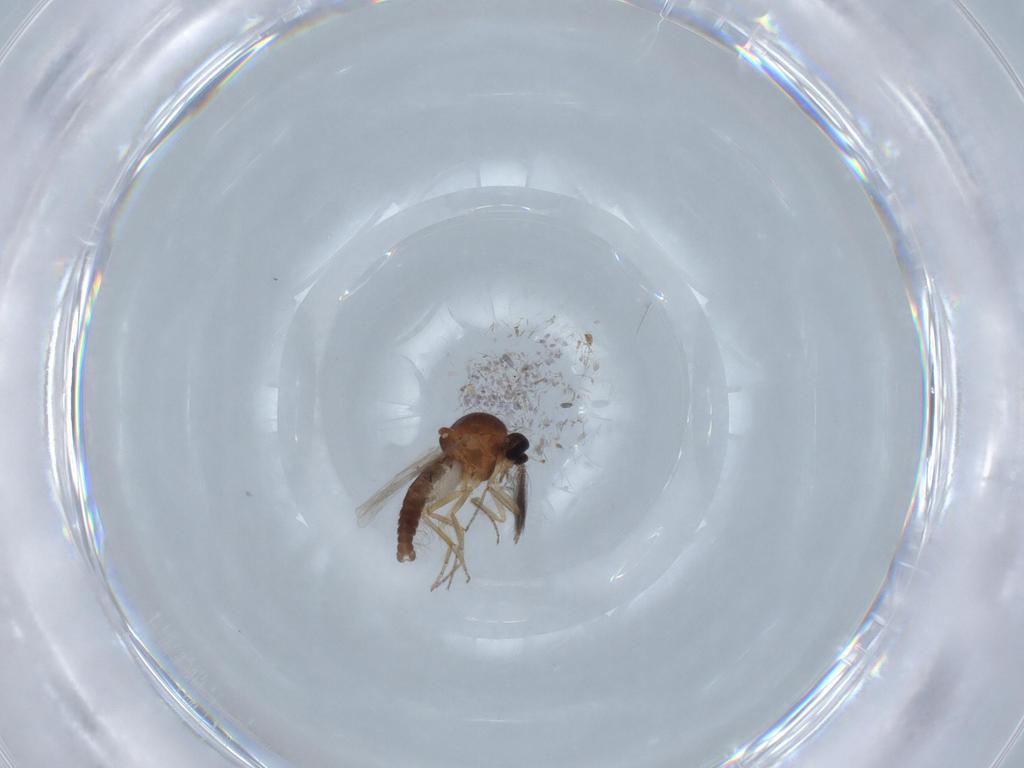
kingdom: Animalia
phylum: Arthropoda
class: Insecta
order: Diptera
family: Ceratopogonidae
